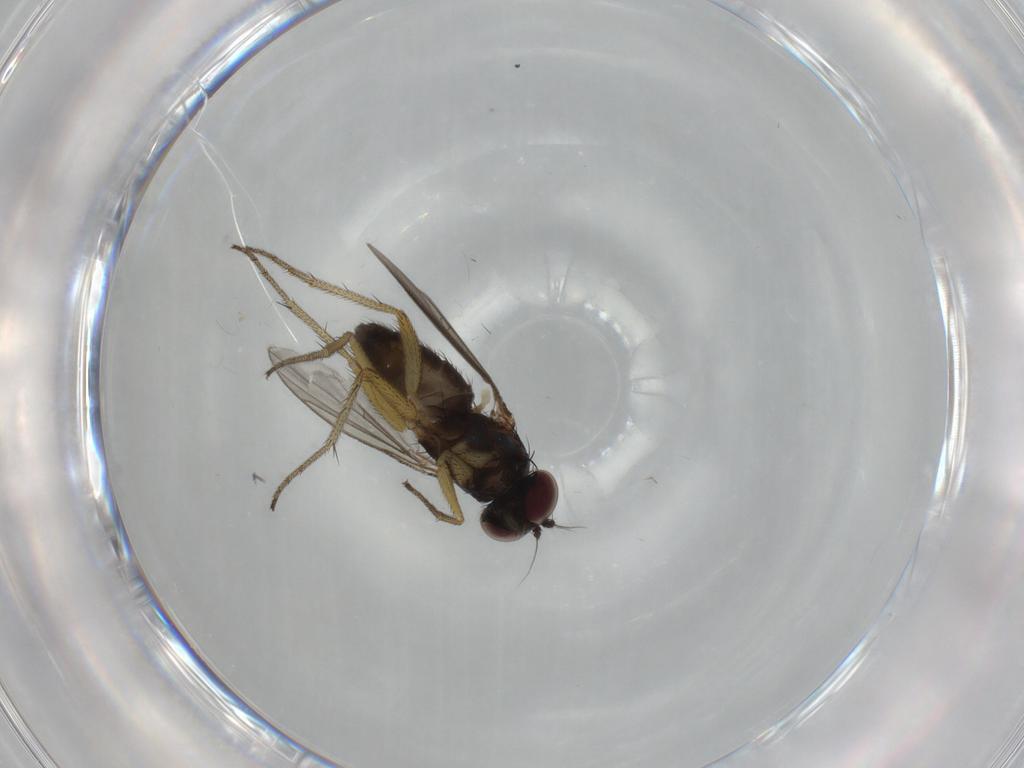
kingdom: Animalia
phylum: Arthropoda
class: Insecta
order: Diptera
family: Dolichopodidae
